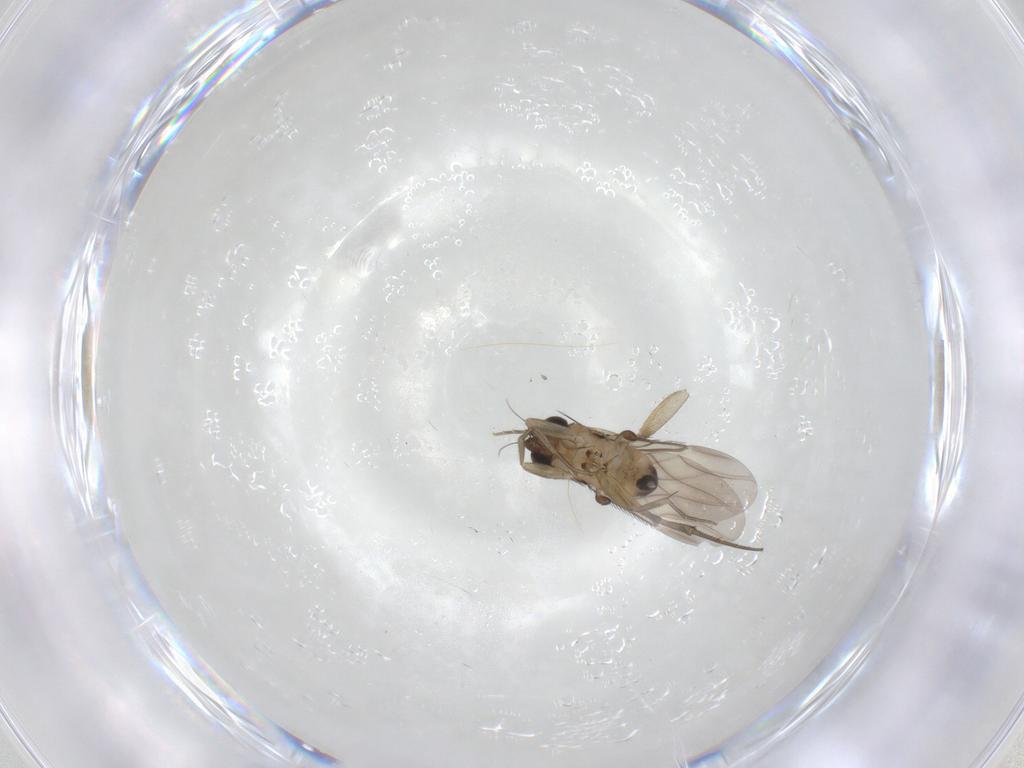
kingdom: Animalia
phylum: Arthropoda
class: Insecta
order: Diptera
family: Phoridae
